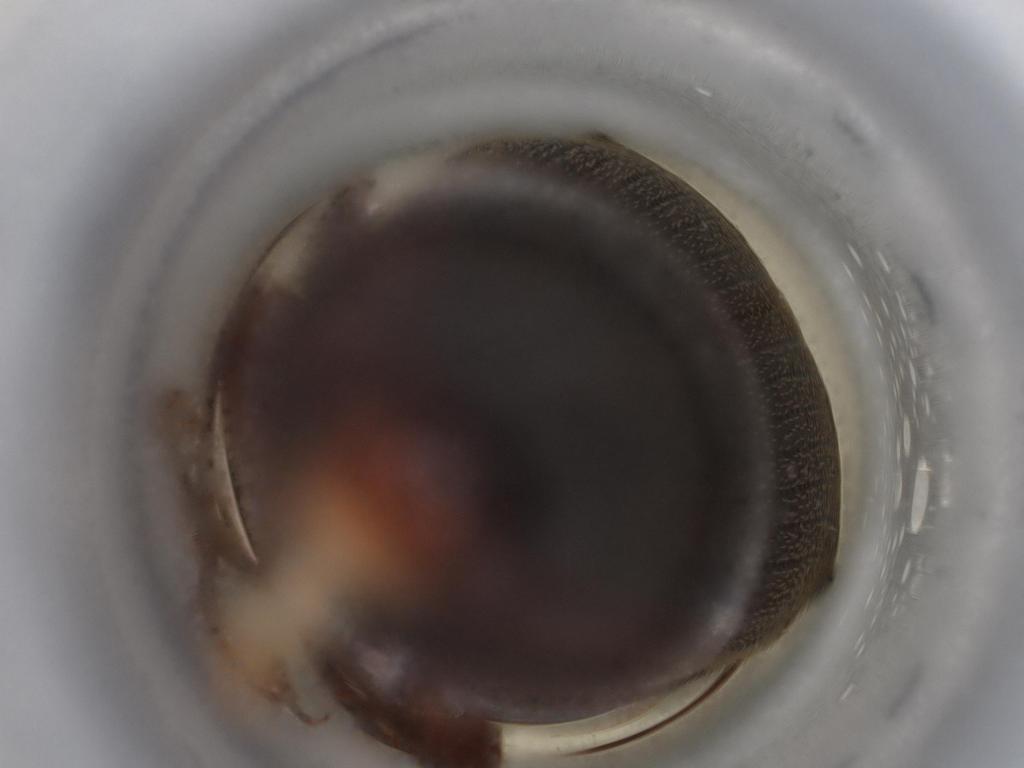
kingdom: Animalia
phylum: Arthropoda
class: Insecta
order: Coleoptera
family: Elateridae
